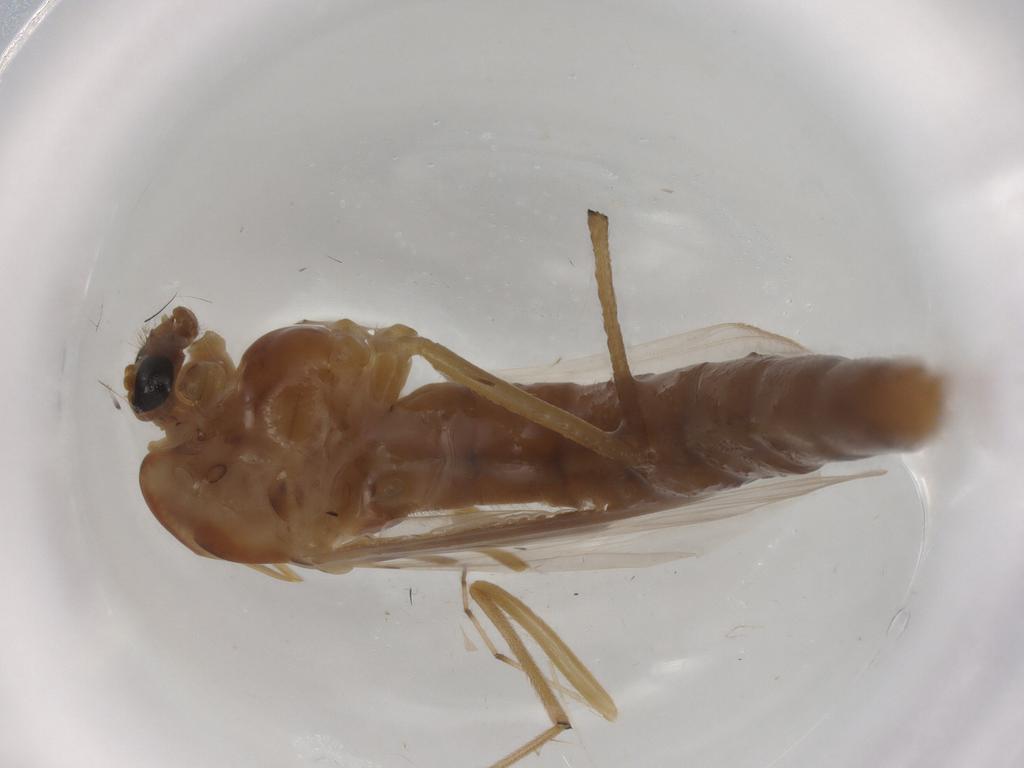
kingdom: Animalia
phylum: Arthropoda
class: Insecta
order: Diptera
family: Chironomidae
